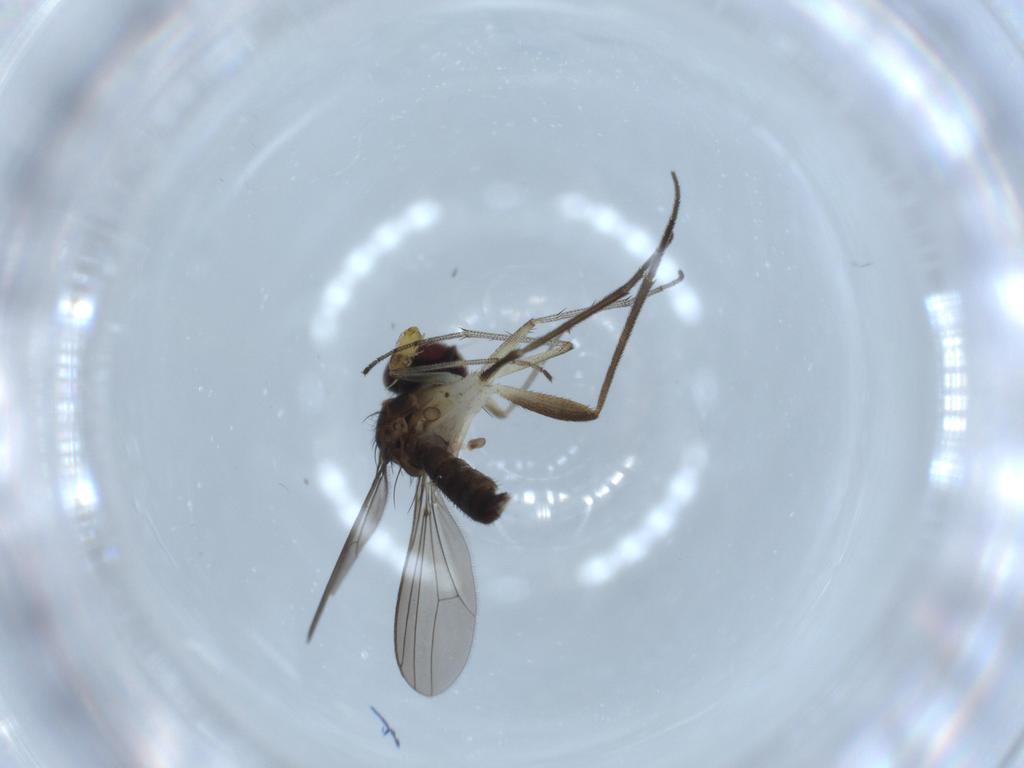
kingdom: Animalia
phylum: Arthropoda
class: Insecta
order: Diptera
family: Dolichopodidae
